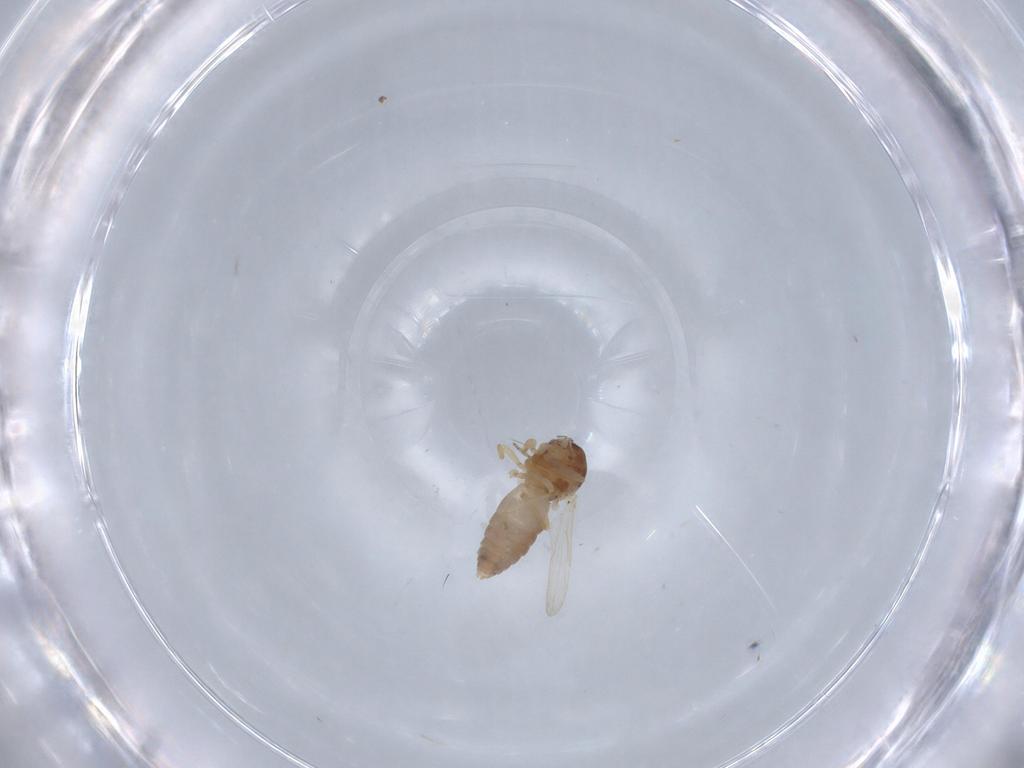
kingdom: Animalia
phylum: Arthropoda
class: Insecta
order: Diptera
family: Ceratopogonidae
